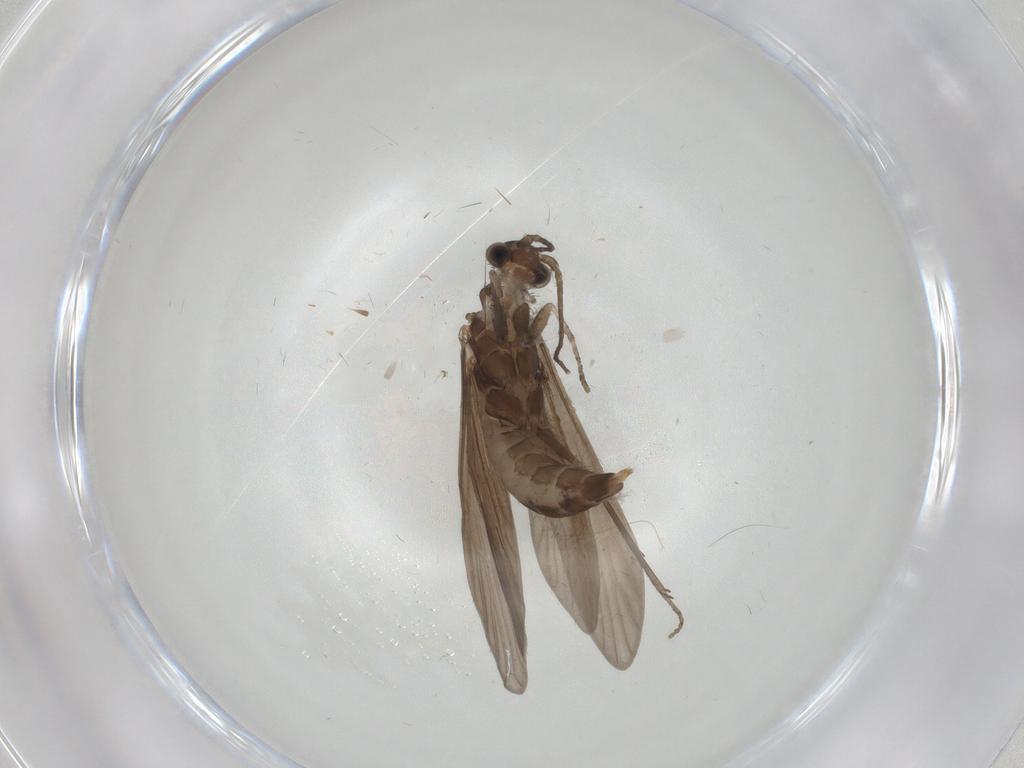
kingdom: Animalia
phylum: Arthropoda
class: Insecta
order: Trichoptera
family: Xiphocentronidae
